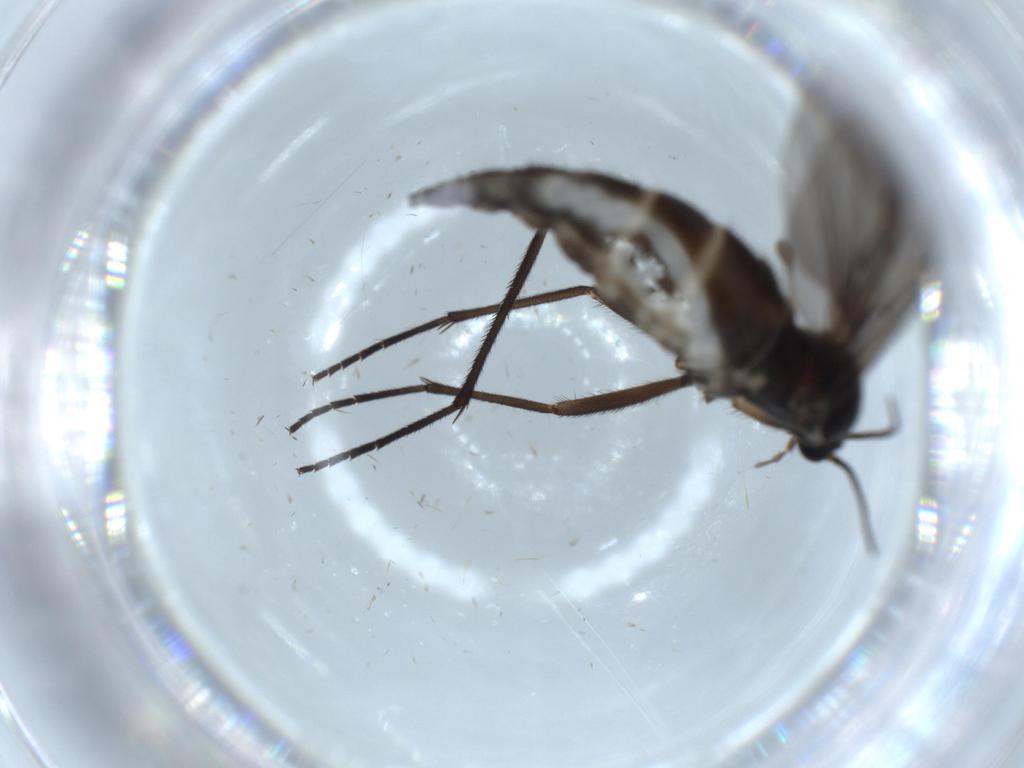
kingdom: Animalia
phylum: Arthropoda
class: Insecta
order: Diptera
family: Sciaridae
